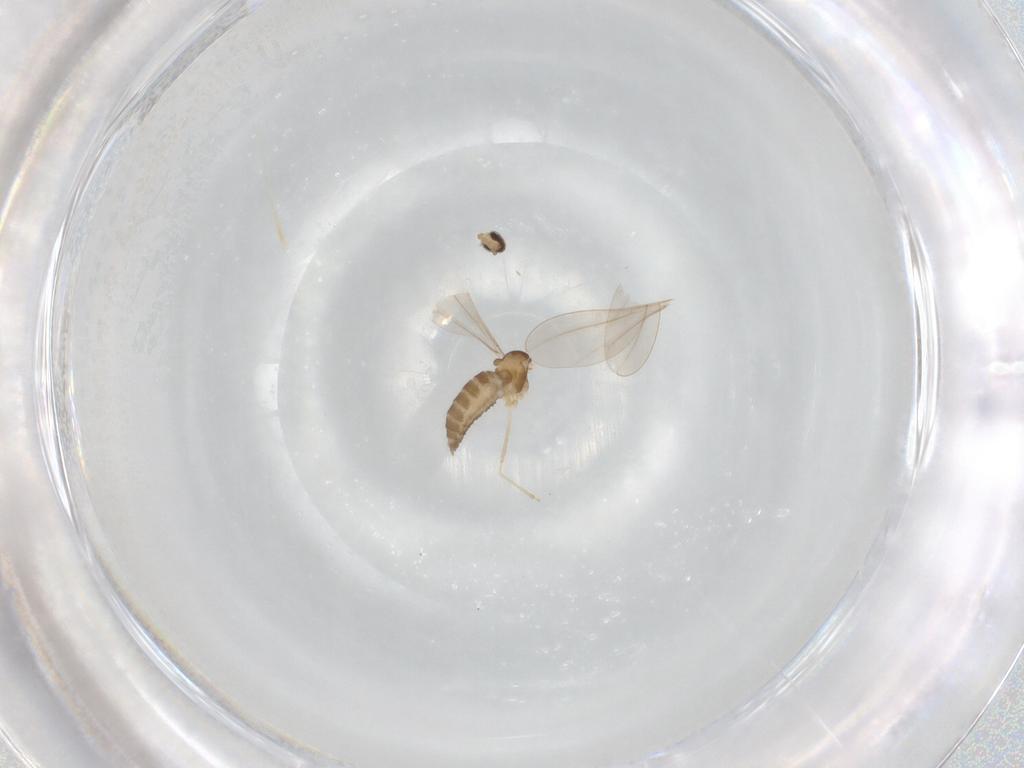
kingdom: Animalia
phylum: Arthropoda
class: Insecta
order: Diptera
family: Cecidomyiidae
